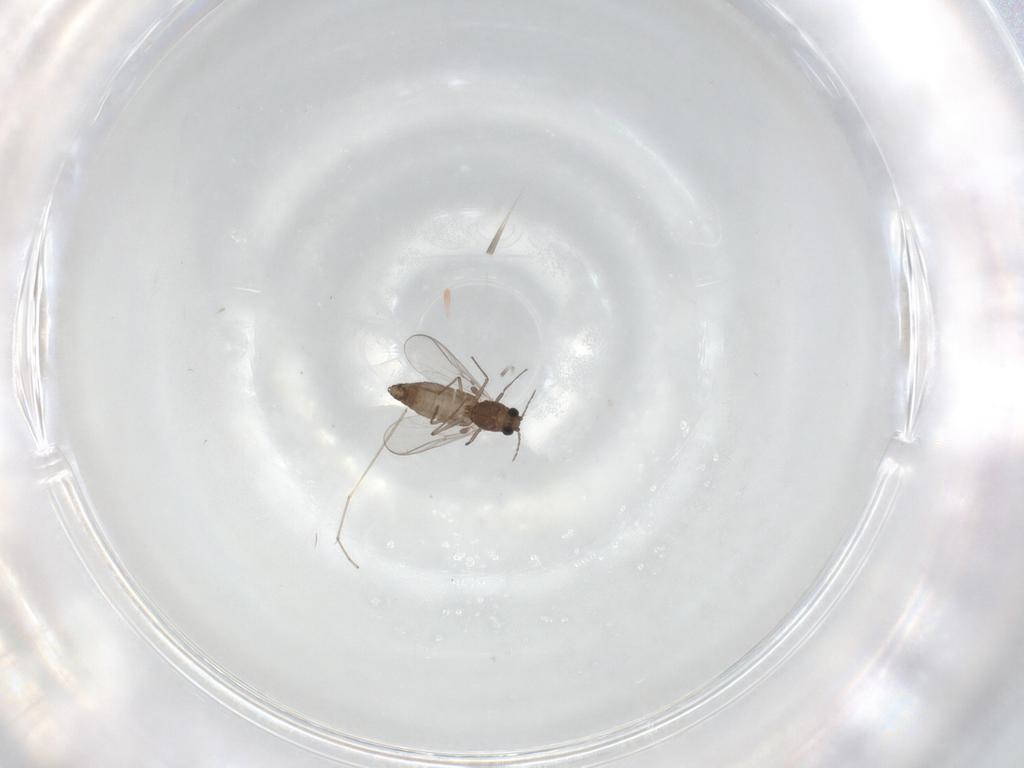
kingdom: Animalia
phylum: Arthropoda
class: Insecta
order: Diptera
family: Chironomidae
